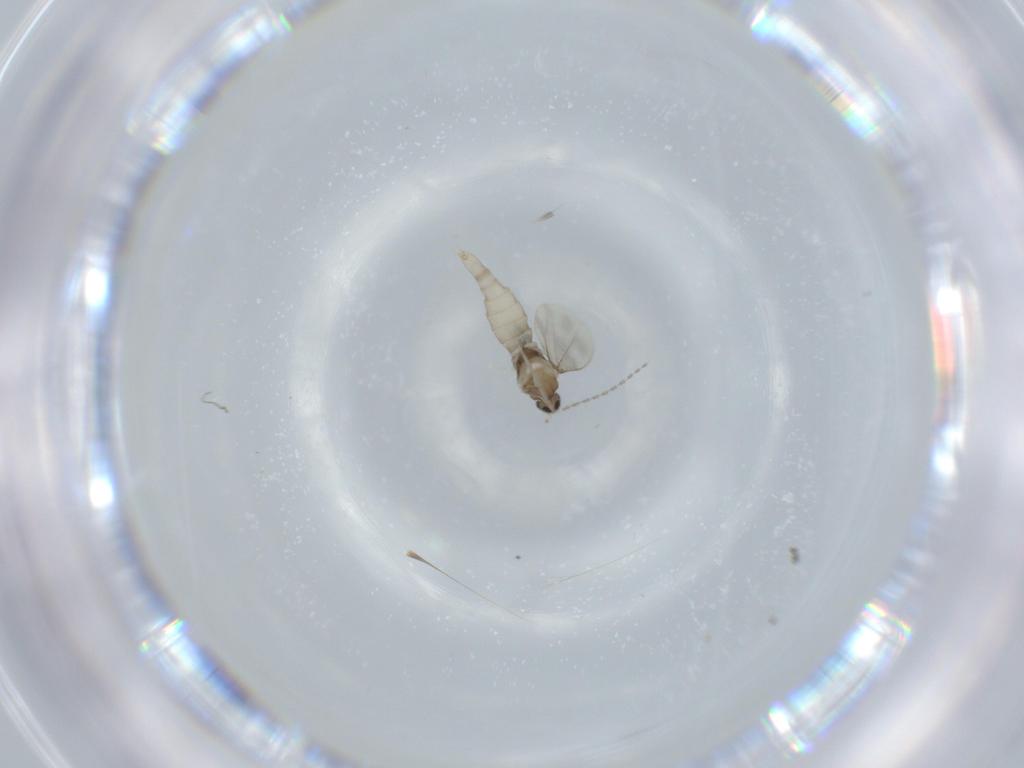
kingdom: Animalia
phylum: Arthropoda
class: Insecta
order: Diptera
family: Cecidomyiidae
